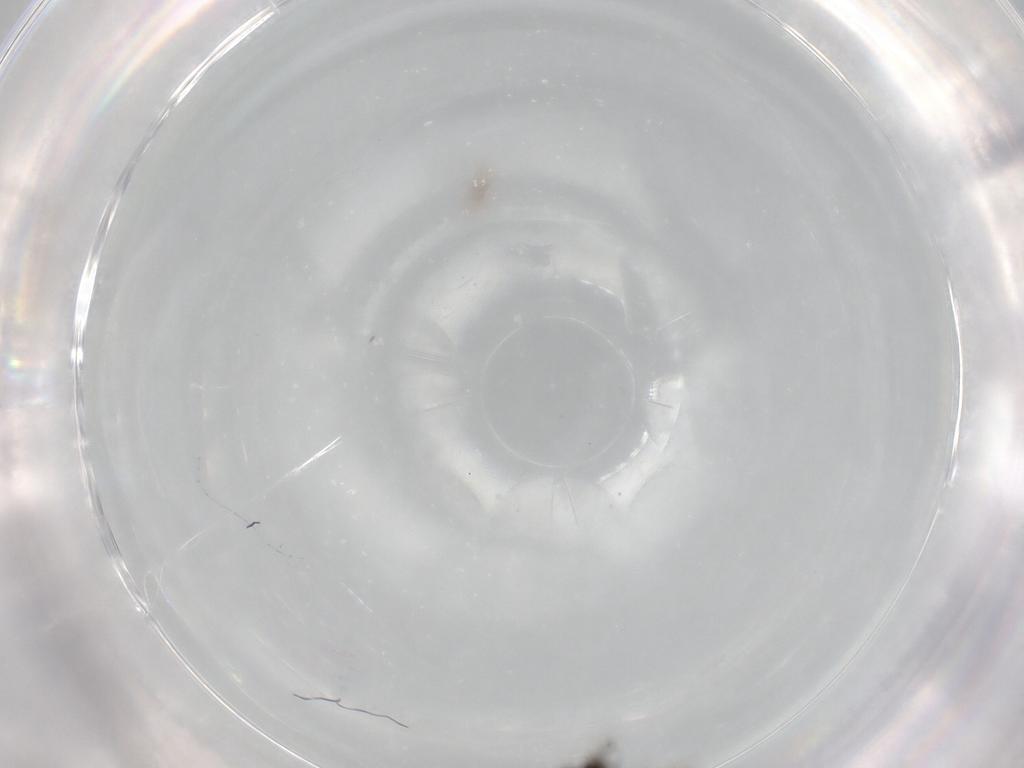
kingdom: Animalia
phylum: Arthropoda
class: Insecta
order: Diptera
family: Chironomidae
